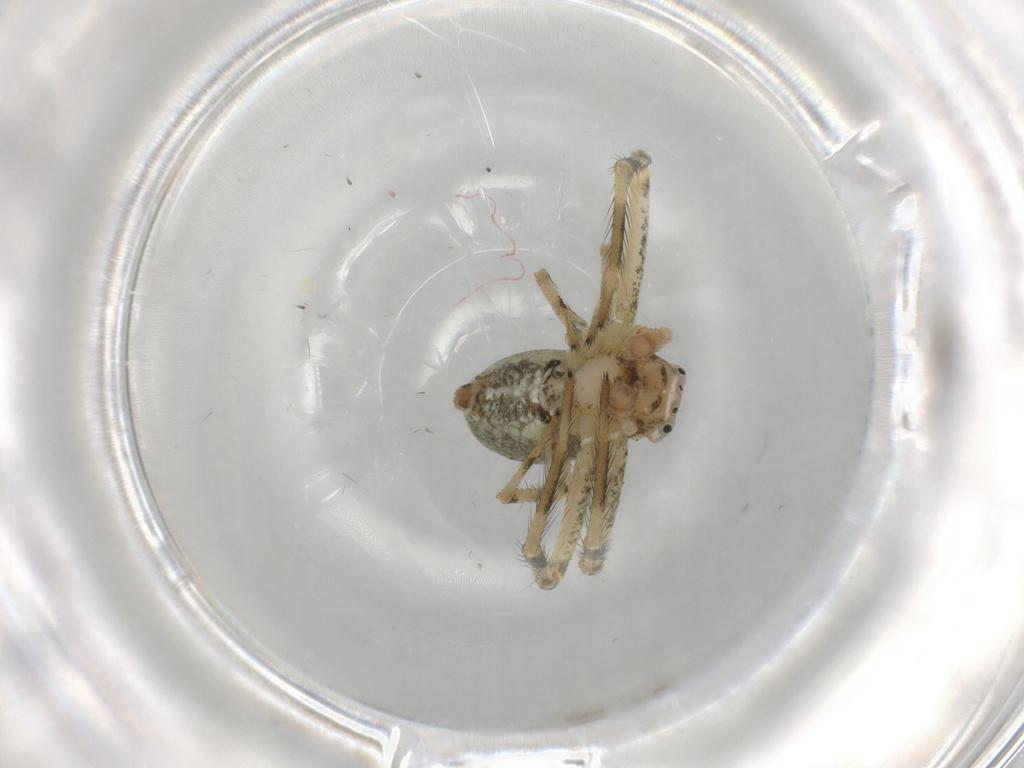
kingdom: Animalia
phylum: Arthropoda
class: Arachnida
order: Araneae
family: Thomisidae
